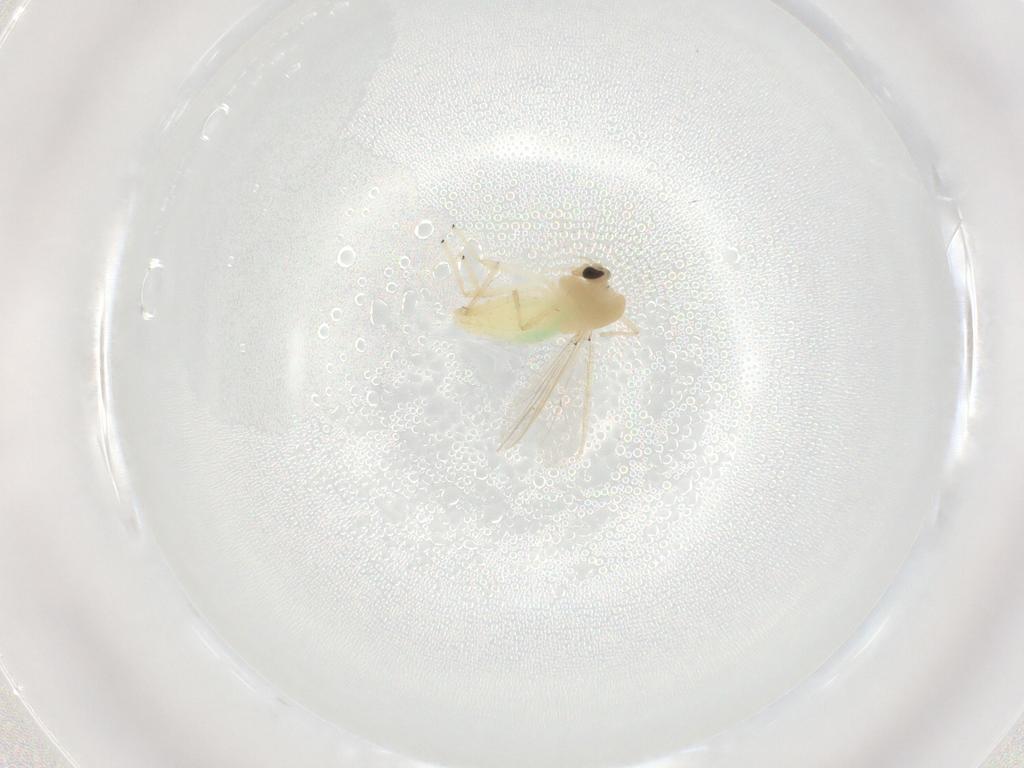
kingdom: Animalia
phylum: Arthropoda
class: Insecta
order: Diptera
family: Chironomidae
